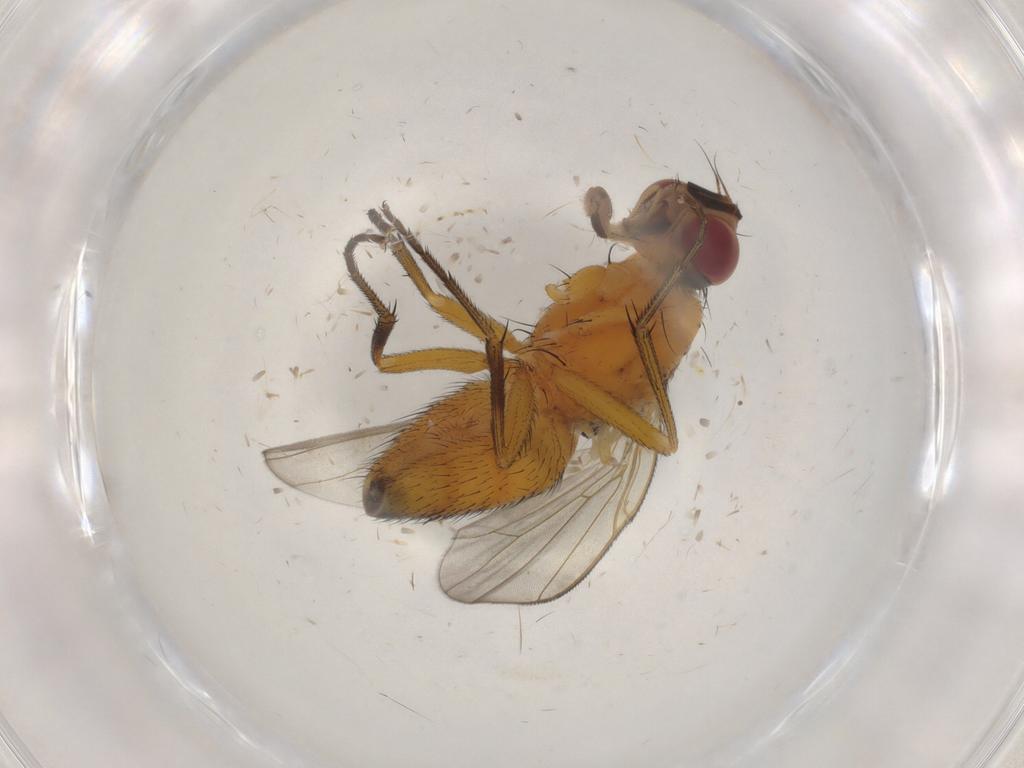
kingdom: Animalia
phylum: Arthropoda
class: Insecta
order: Diptera
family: Muscidae
